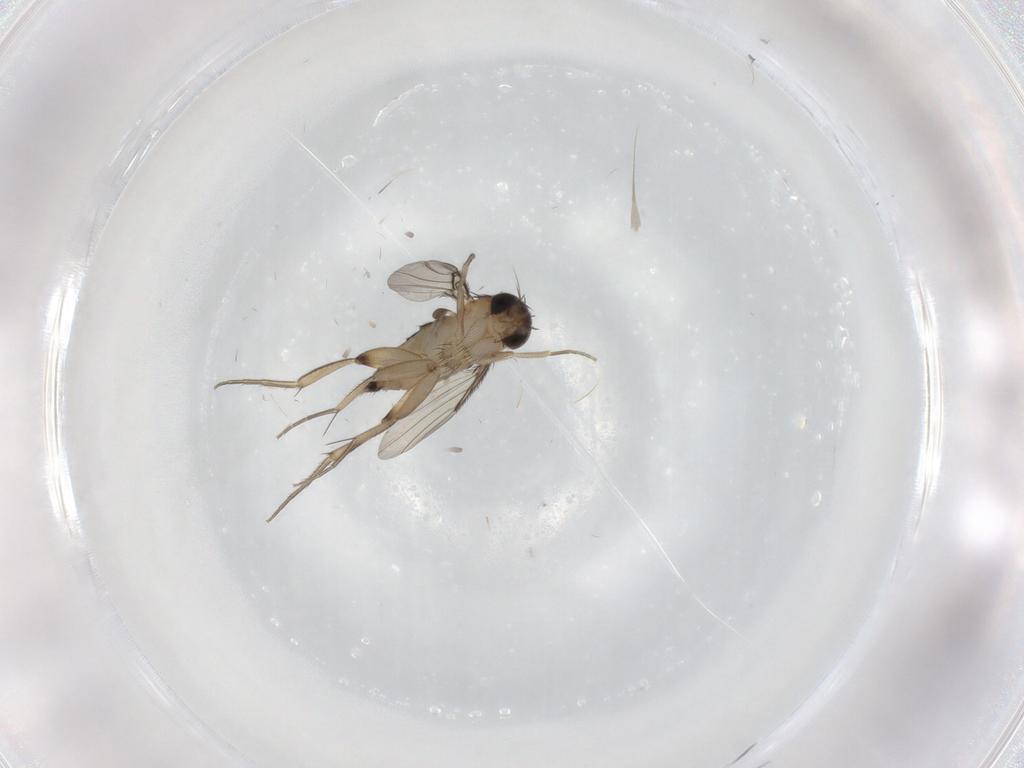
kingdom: Animalia
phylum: Arthropoda
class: Insecta
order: Diptera
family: Phoridae
